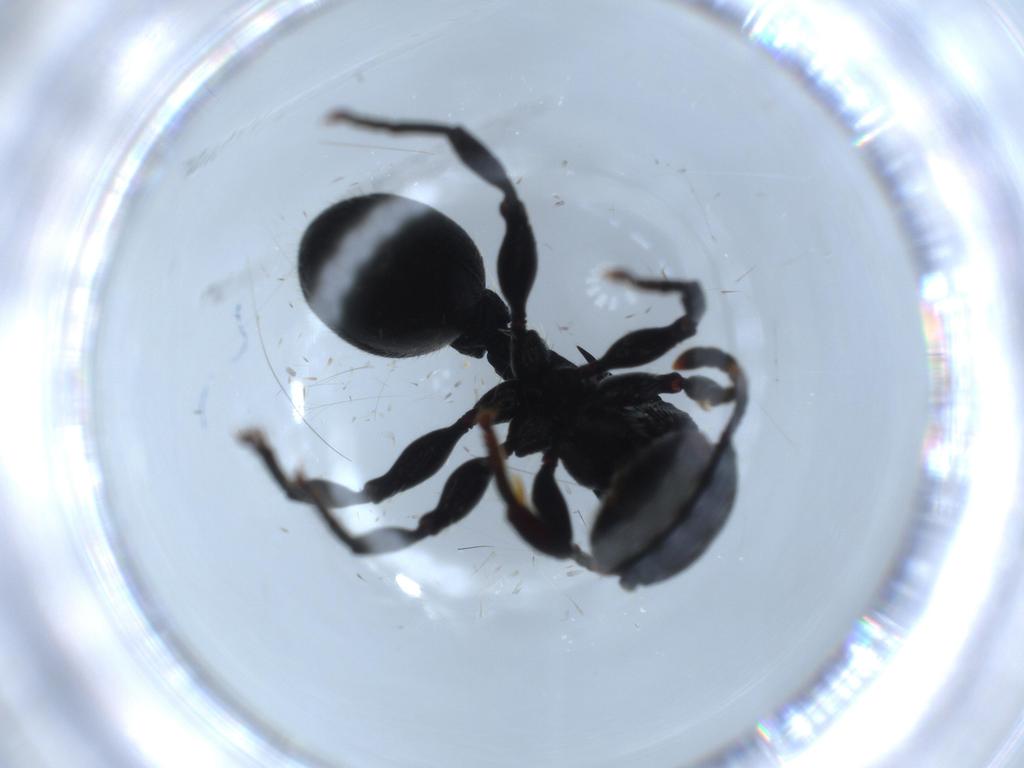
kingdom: Animalia
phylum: Arthropoda
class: Insecta
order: Hymenoptera
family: Formicidae
